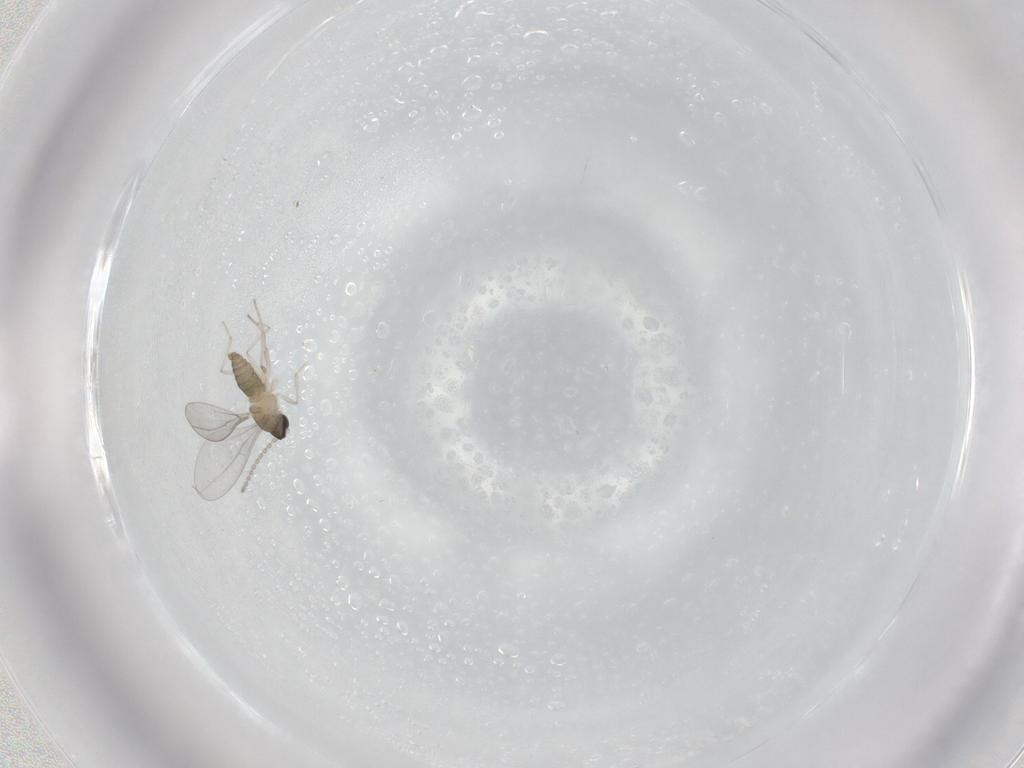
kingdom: Animalia
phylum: Arthropoda
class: Insecta
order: Diptera
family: Cecidomyiidae
